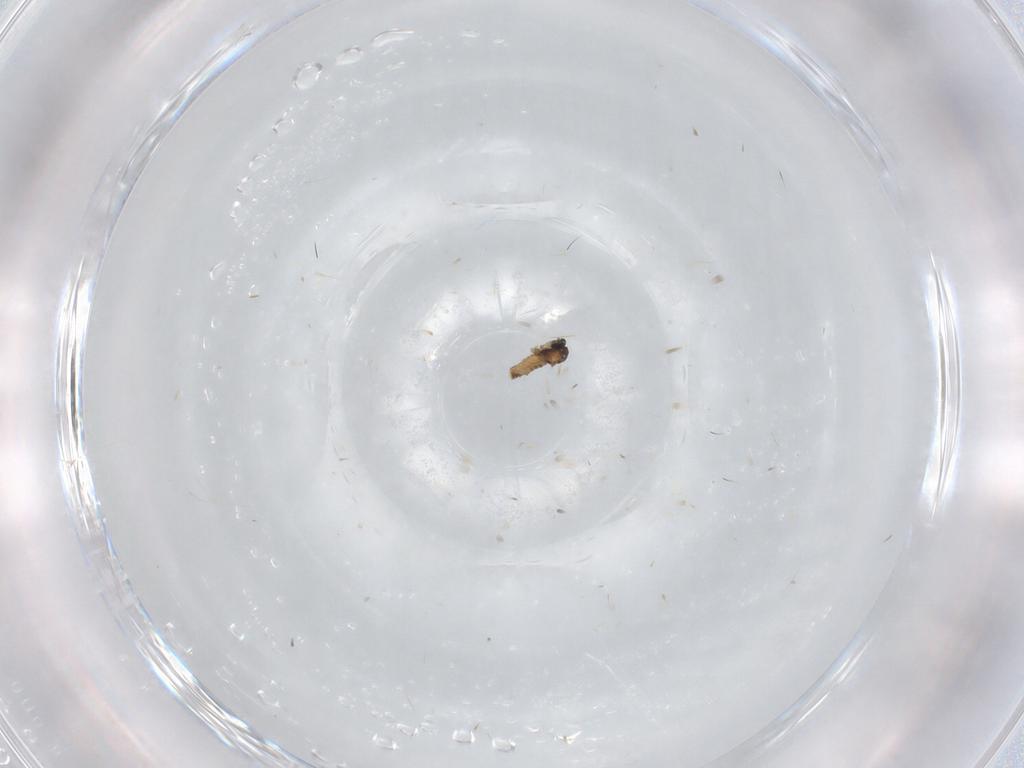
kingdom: Animalia
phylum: Arthropoda
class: Insecta
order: Diptera
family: Cecidomyiidae
